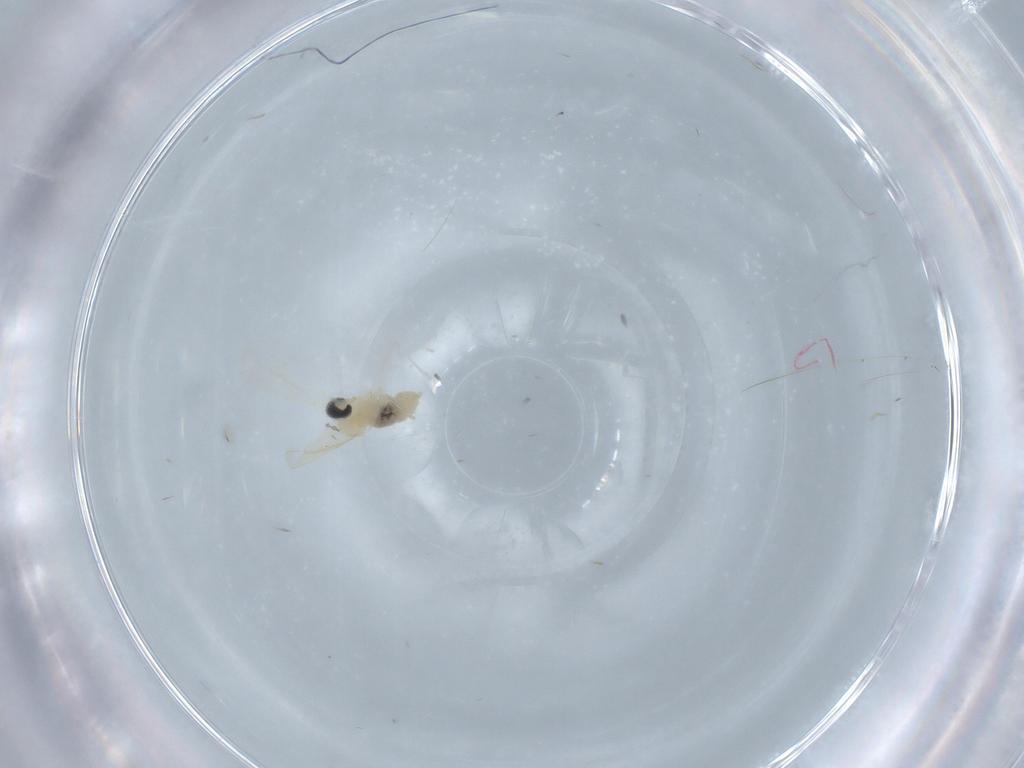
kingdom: Animalia
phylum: Arthropoda
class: Insecta
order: Diptera
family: Cecidomyiidae
